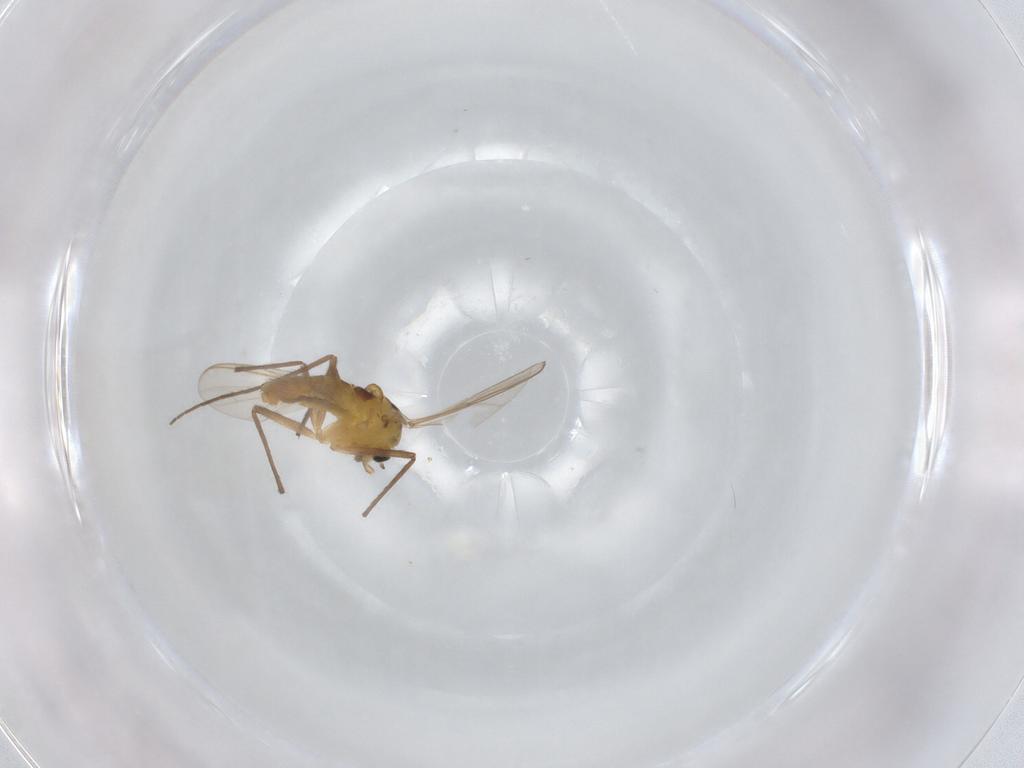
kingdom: Animalia
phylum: Arthropoda
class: Insecta
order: Diptera
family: Chironomidae
